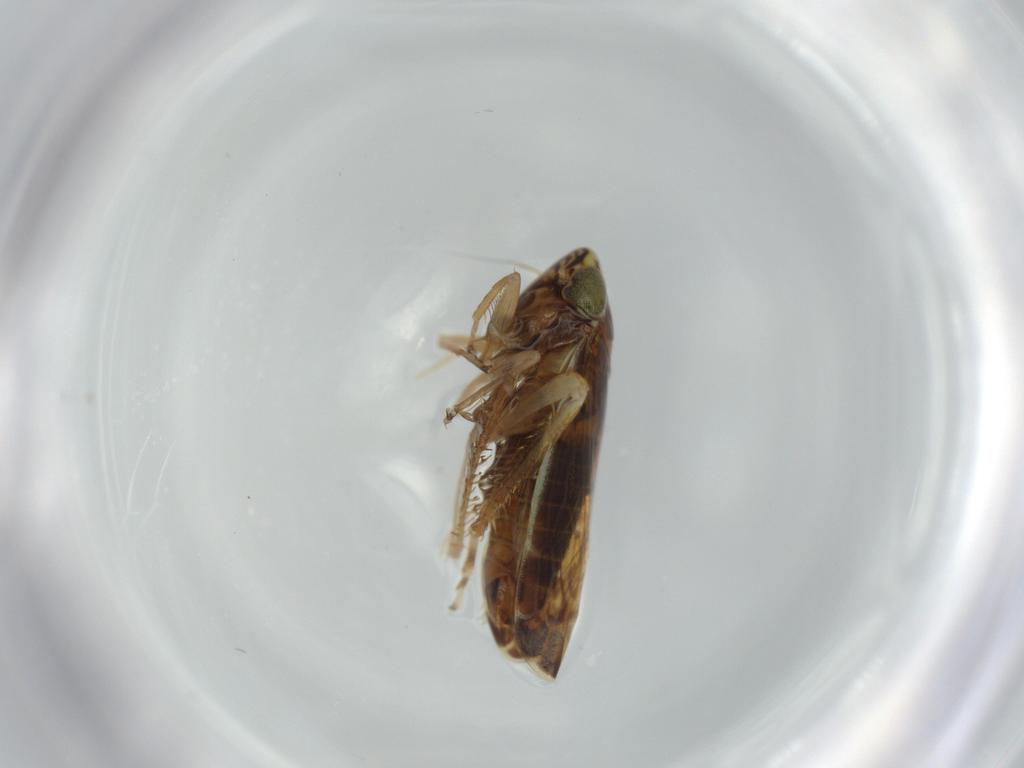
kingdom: Animalia
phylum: Arthropoda
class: Insecta
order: Hemiptera
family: Cicadellidae
